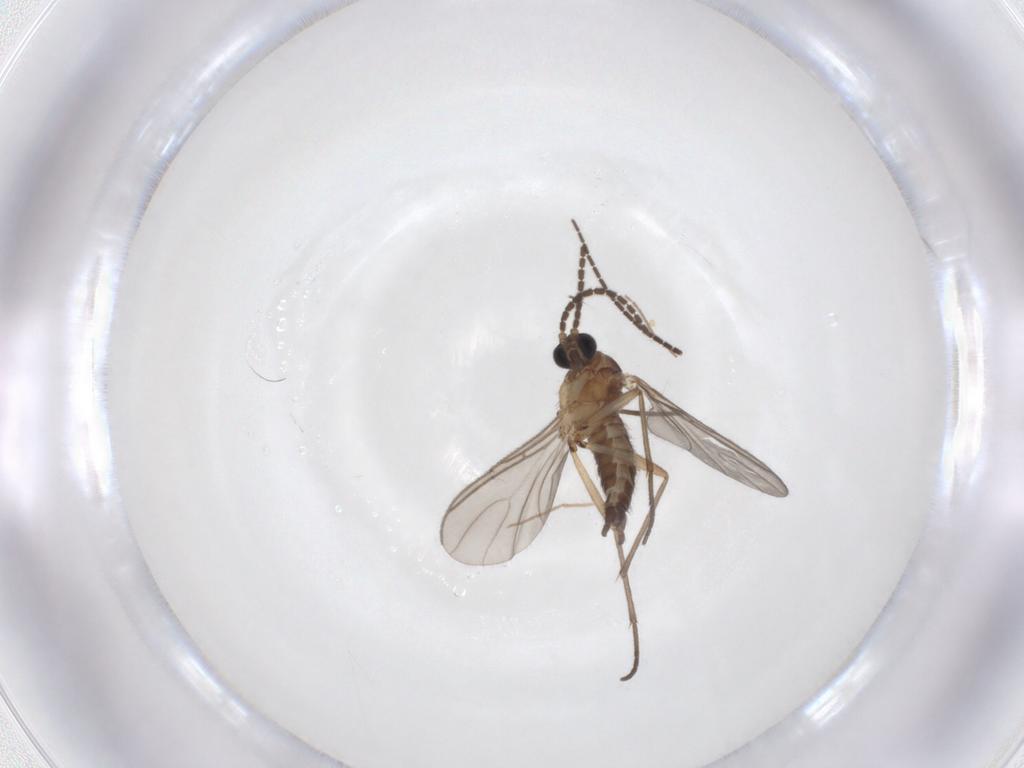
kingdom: Animalia
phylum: Arthropoda
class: Insecta
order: Diptera
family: Sciaridae
